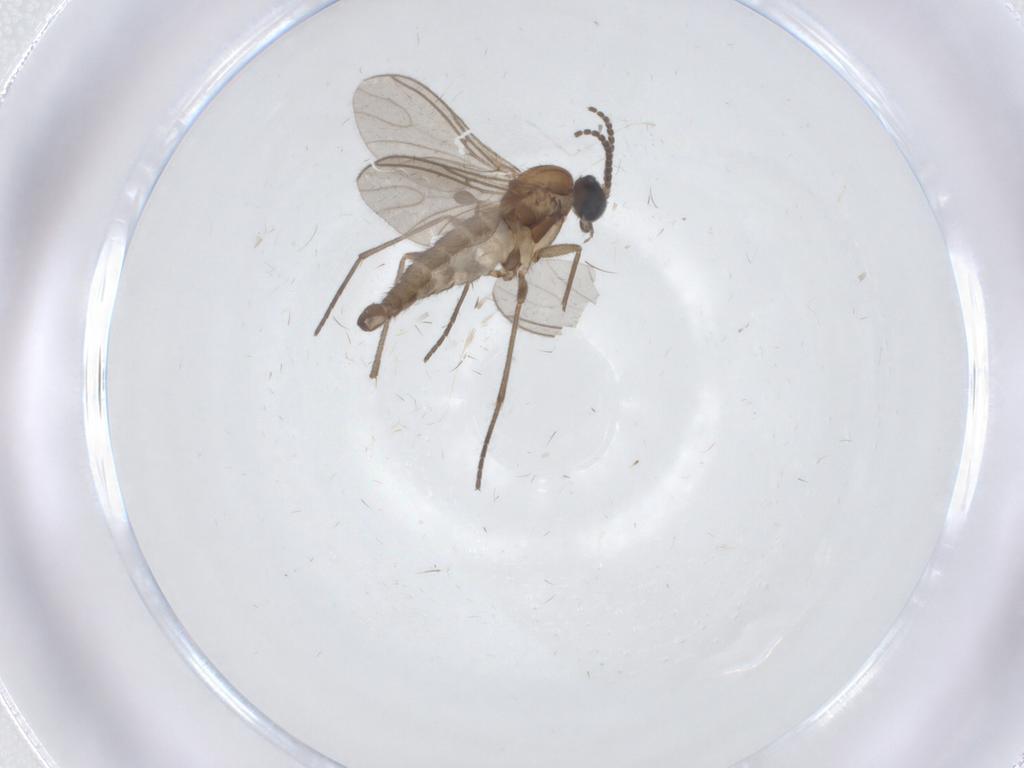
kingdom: Animalia
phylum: Arthropoda
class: Insecta
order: Diptera
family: Sciaridae
